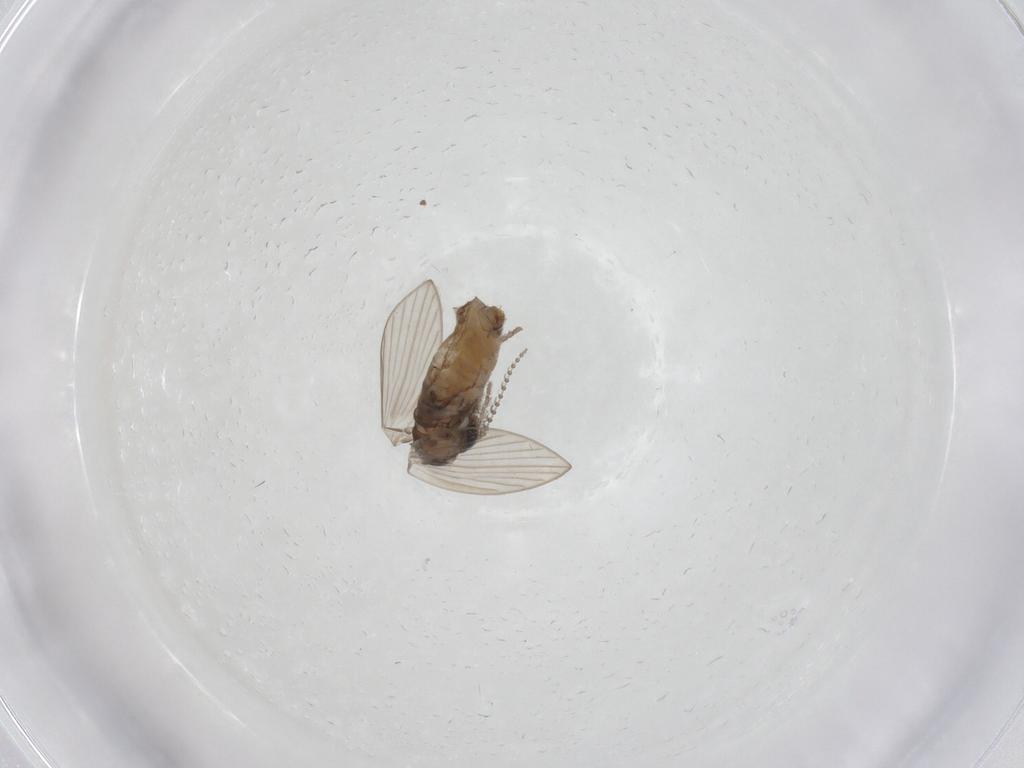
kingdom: Animalia
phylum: Arthropoda
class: Insecta
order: Diptera
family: Psychodidae
